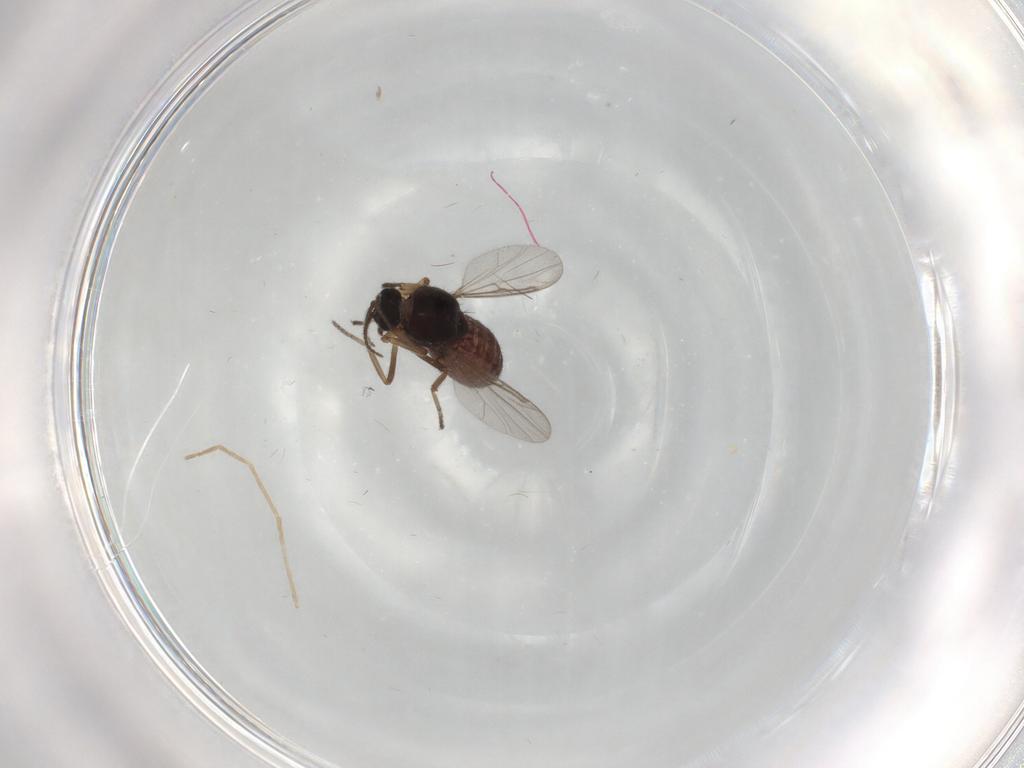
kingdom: Animalia
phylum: Arthropoda
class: Insecta
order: Diptera
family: Ceratopogonidae
